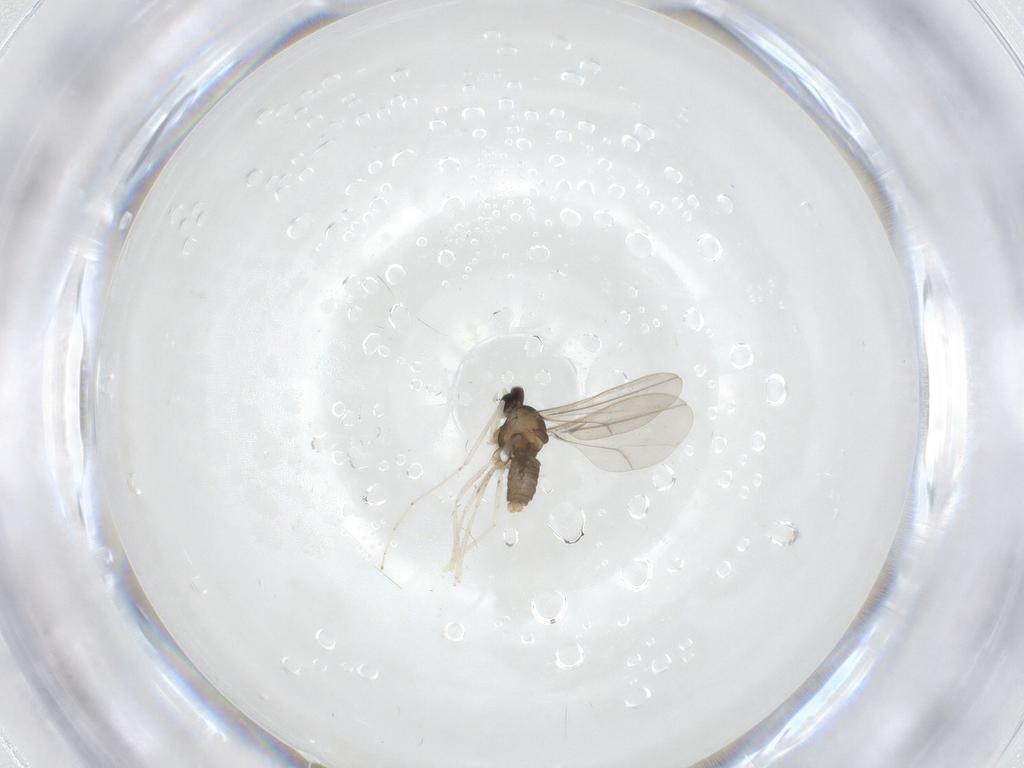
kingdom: Animalia
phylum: Arthropoda
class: Insecta
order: Diptera
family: Cecidomyiidae
